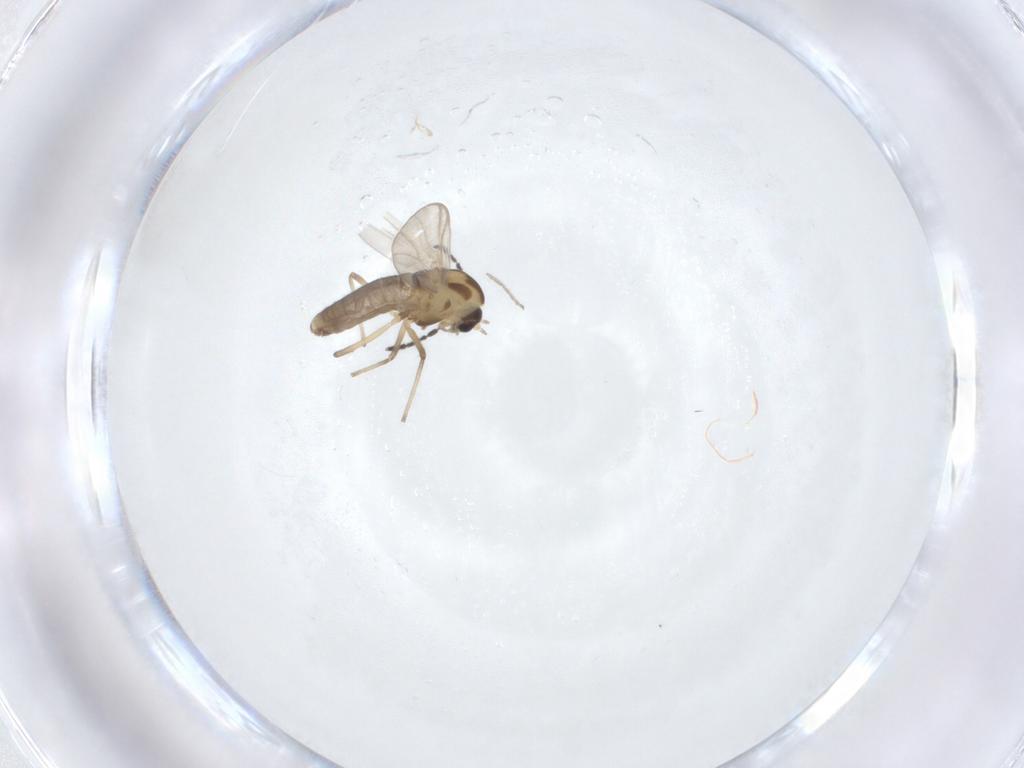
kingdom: Animalia
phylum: Arthropoda
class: Insecta
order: Diptera
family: Chironomidae
